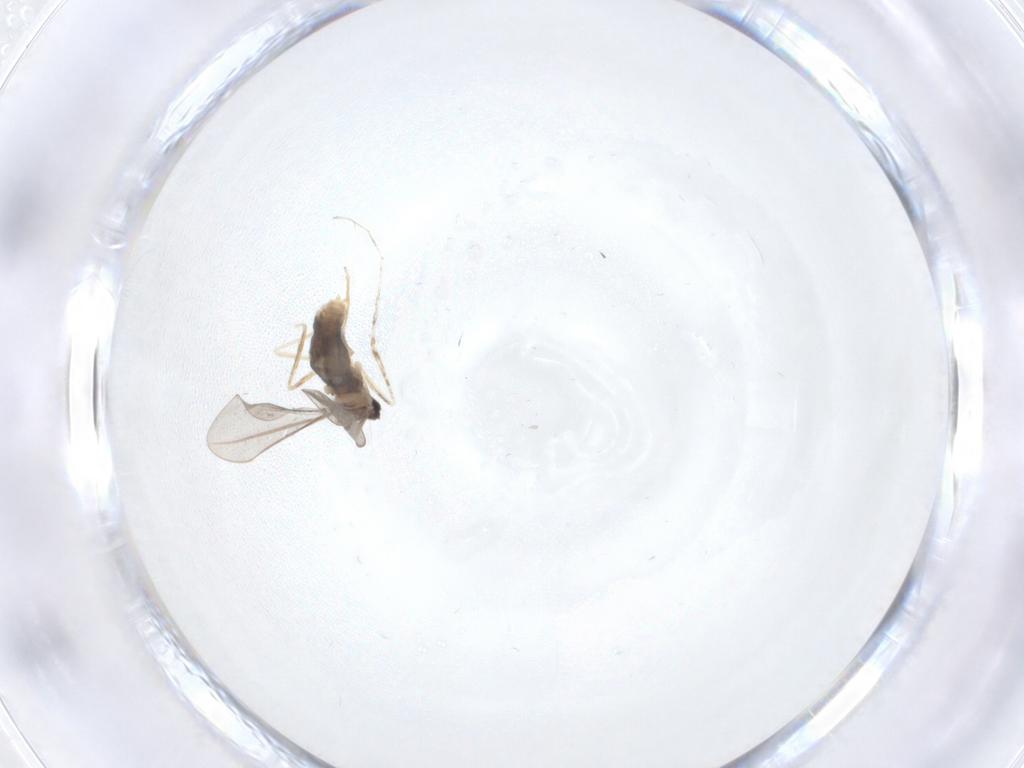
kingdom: Animalia
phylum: Arthropoda
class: Insecta
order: Diptera
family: Cecidomyiidae
